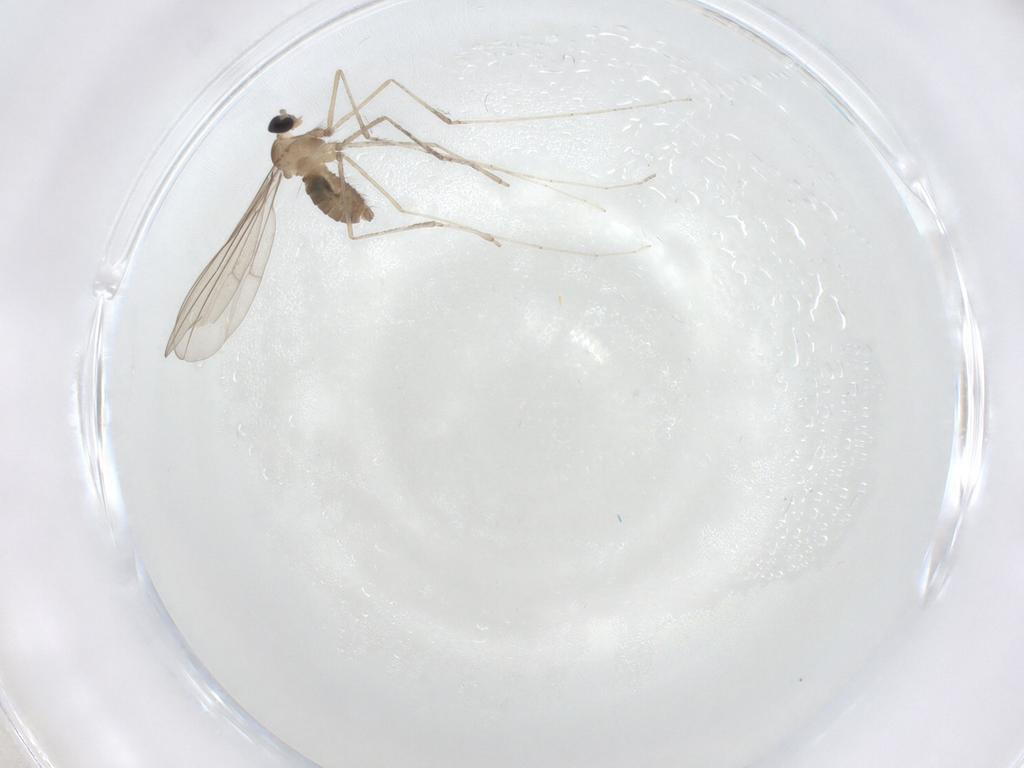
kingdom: Animalia
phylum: Arthropoda
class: Insecta
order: Diptera
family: Cecidomyiidae
